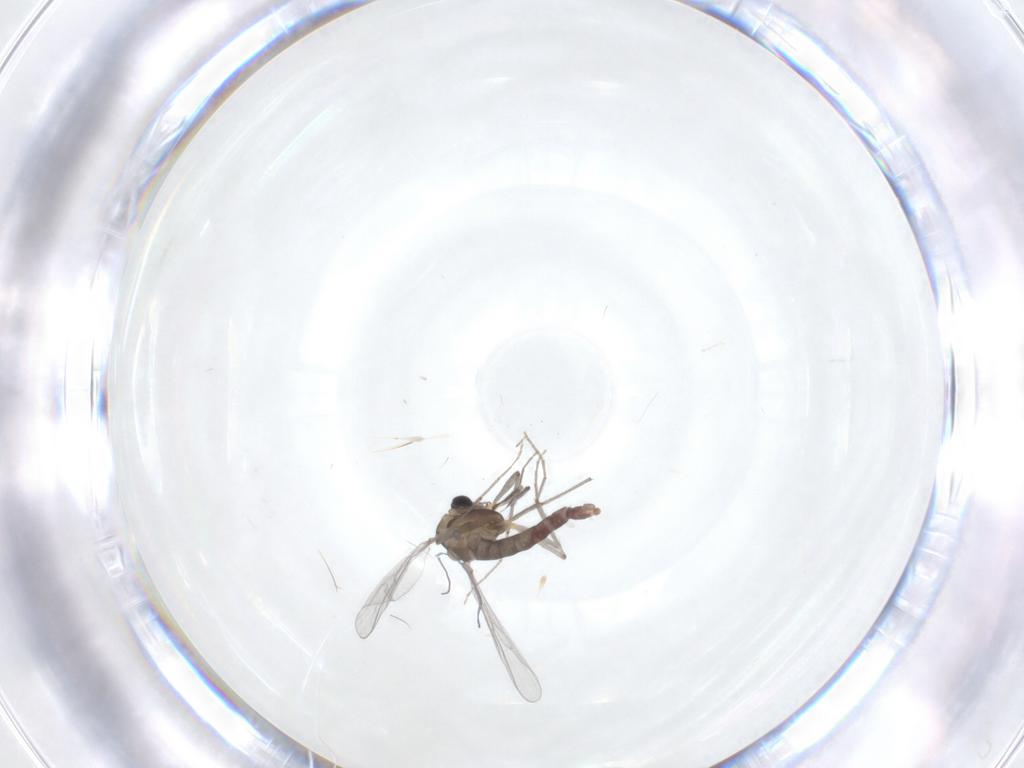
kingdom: Animalia
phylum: Arthropoda
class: Insecta
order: Diptera
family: Chironomidae
